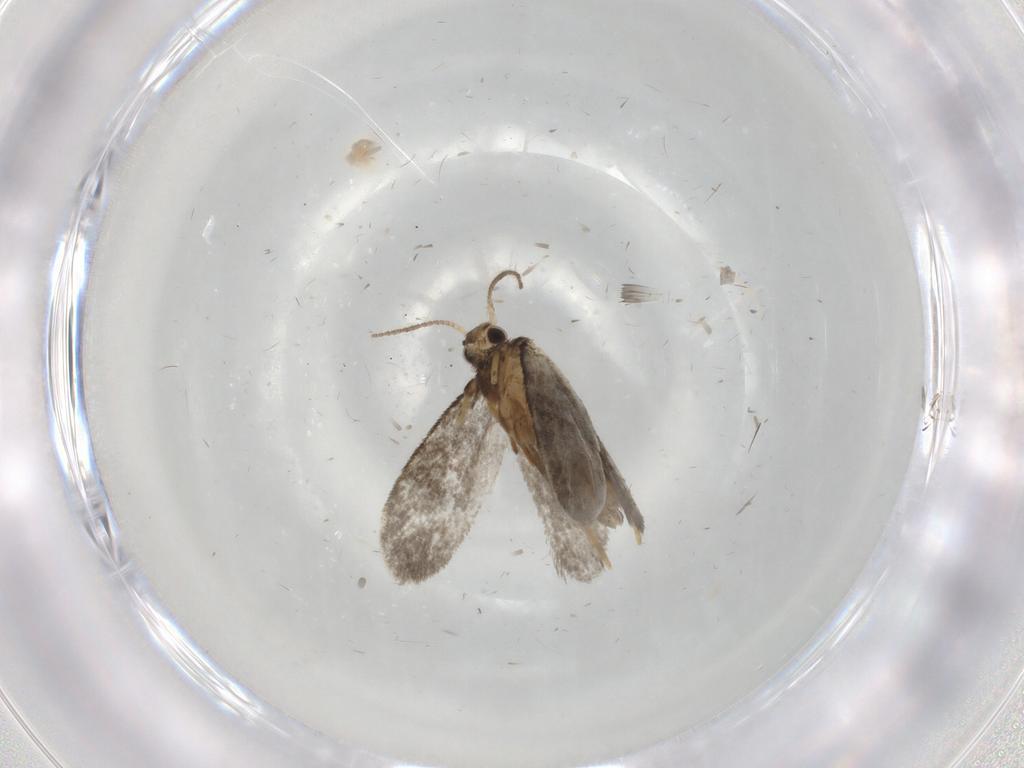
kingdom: Animalia
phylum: Arthropoda
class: Insecta
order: Lepidoptera
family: Psychidae
